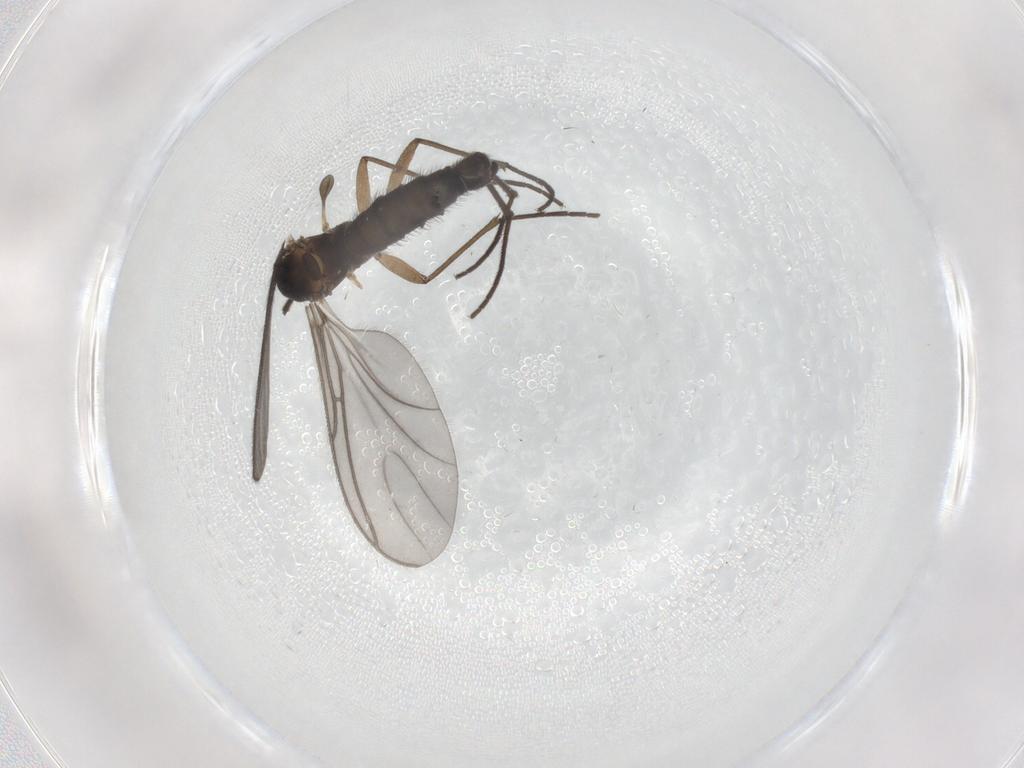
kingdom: Animalia
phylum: Arthropoda
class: Insecta
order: Diptera
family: Sciaridae
